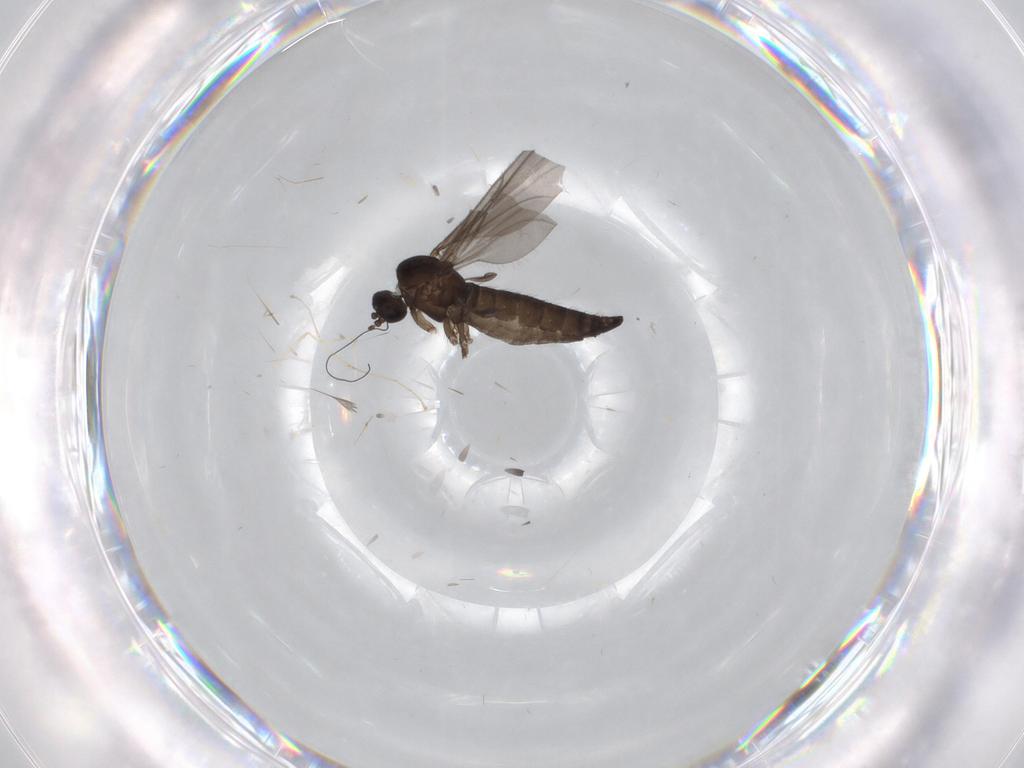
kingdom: Animalia
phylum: Arthropoda
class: Insecta
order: Diptera
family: Sciaridae
